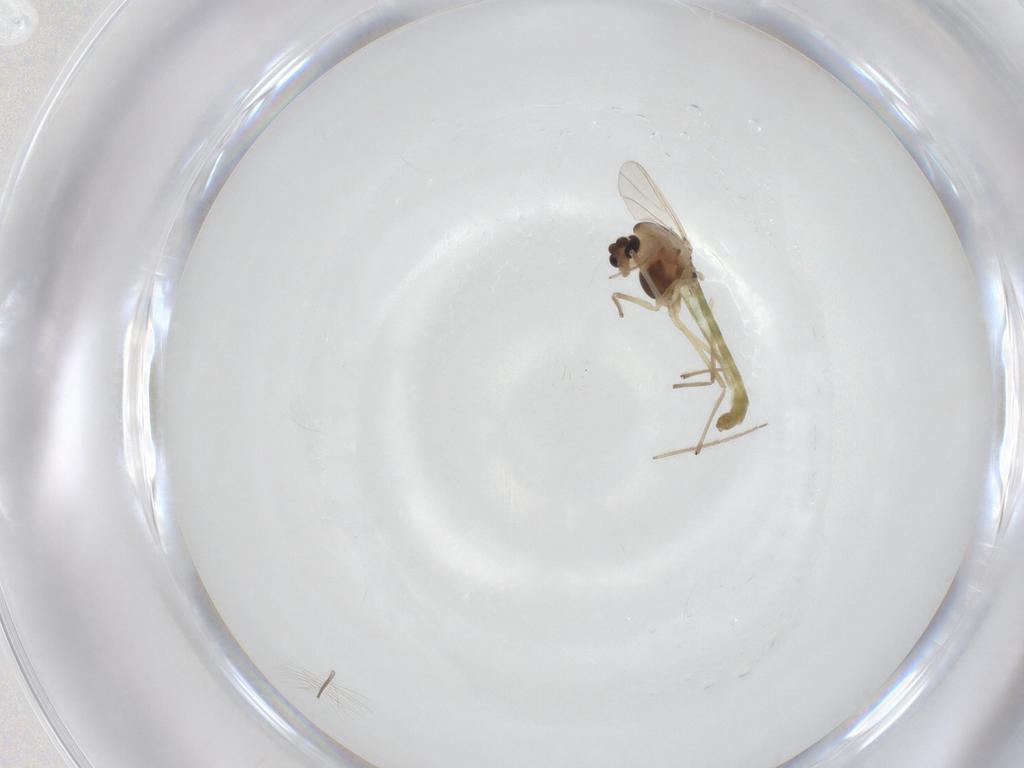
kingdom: Animalia
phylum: Arthropoda
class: Insecta
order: Diptera
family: Chironomidae
